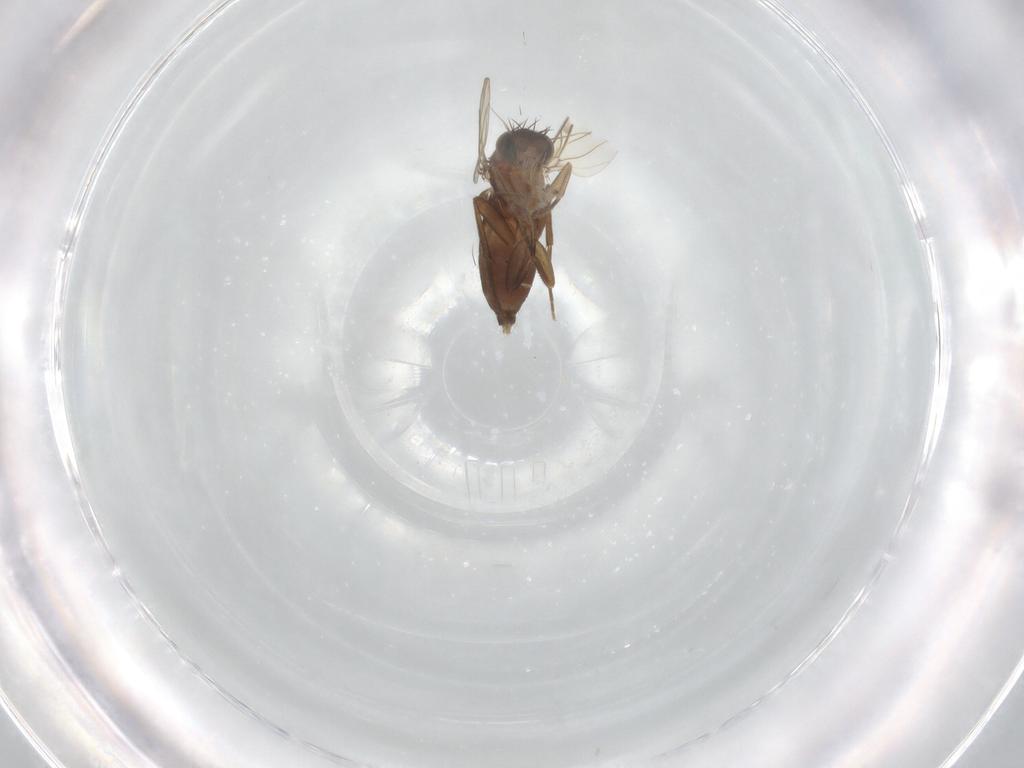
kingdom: Animalia
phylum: Arthropoda
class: Insecta
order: Diptera
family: Phoridae
